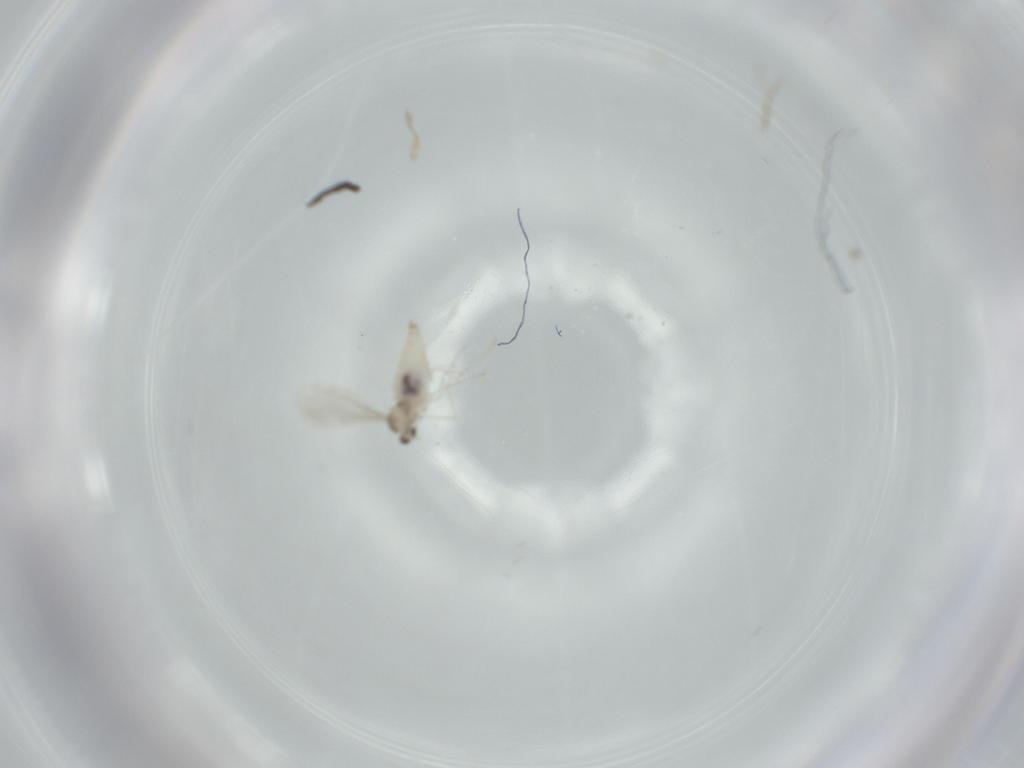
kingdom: Animalia
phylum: Arthropoda
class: Insecta
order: Diptera
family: Cecidomyiidae
